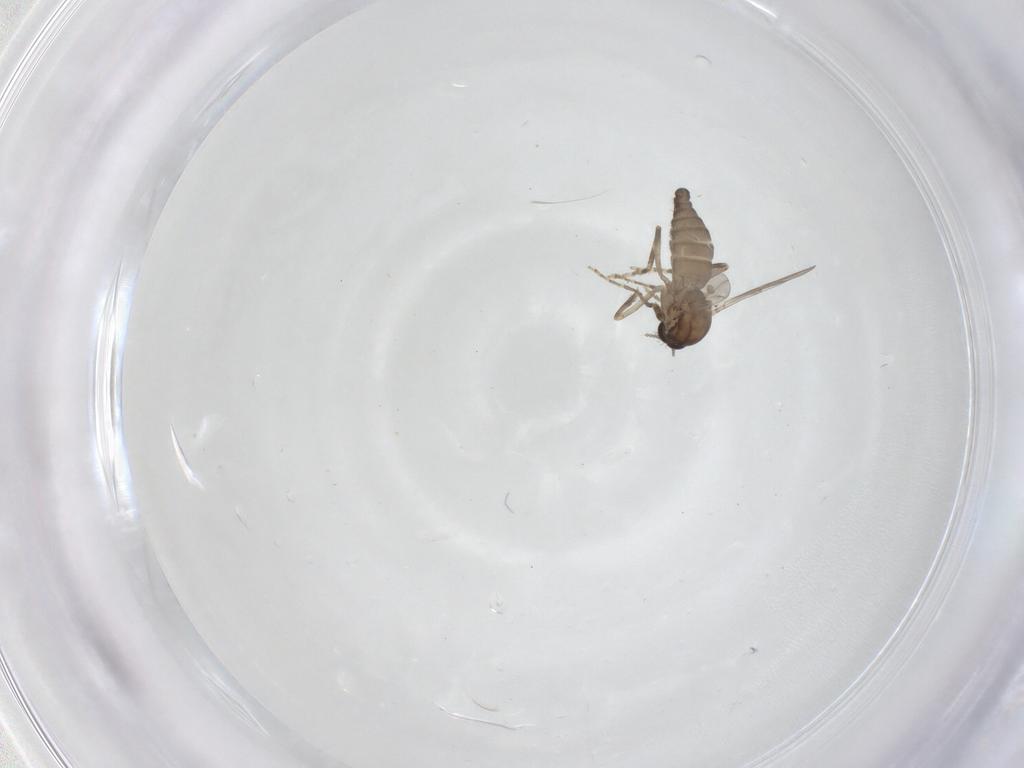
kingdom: Animalia
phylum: Arthropoda
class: Insecta
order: Diptera
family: Ceratopogonidae
